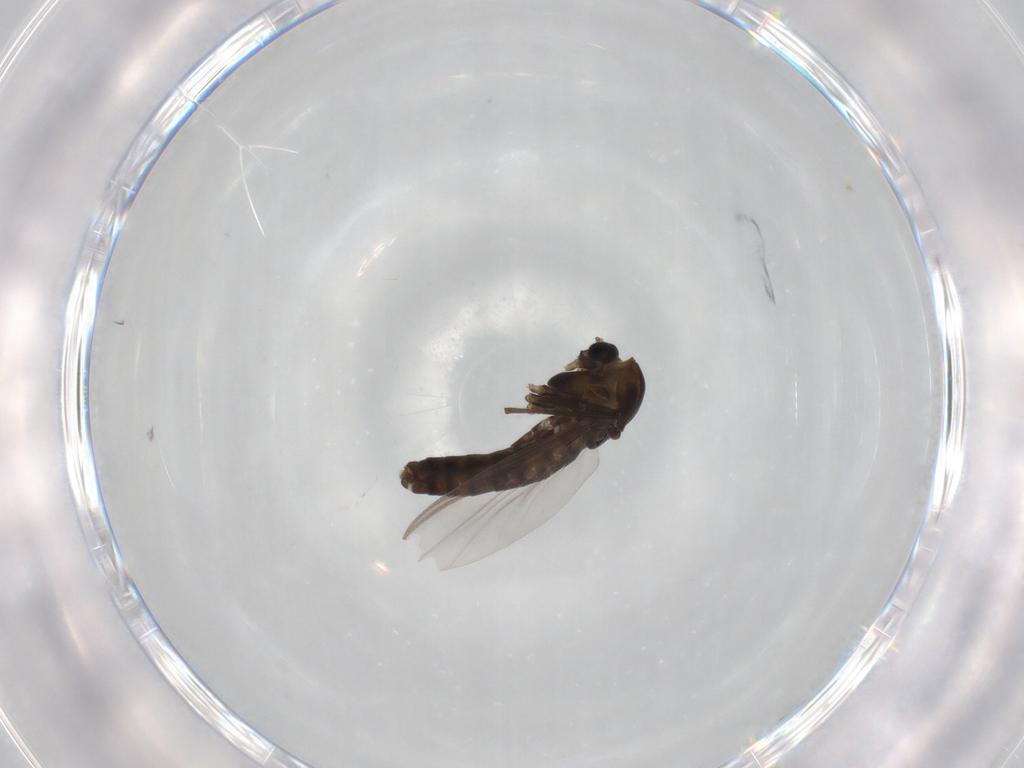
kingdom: Animalia
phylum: Arthropoda
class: Insecta
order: Diptera
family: Chironomidae
